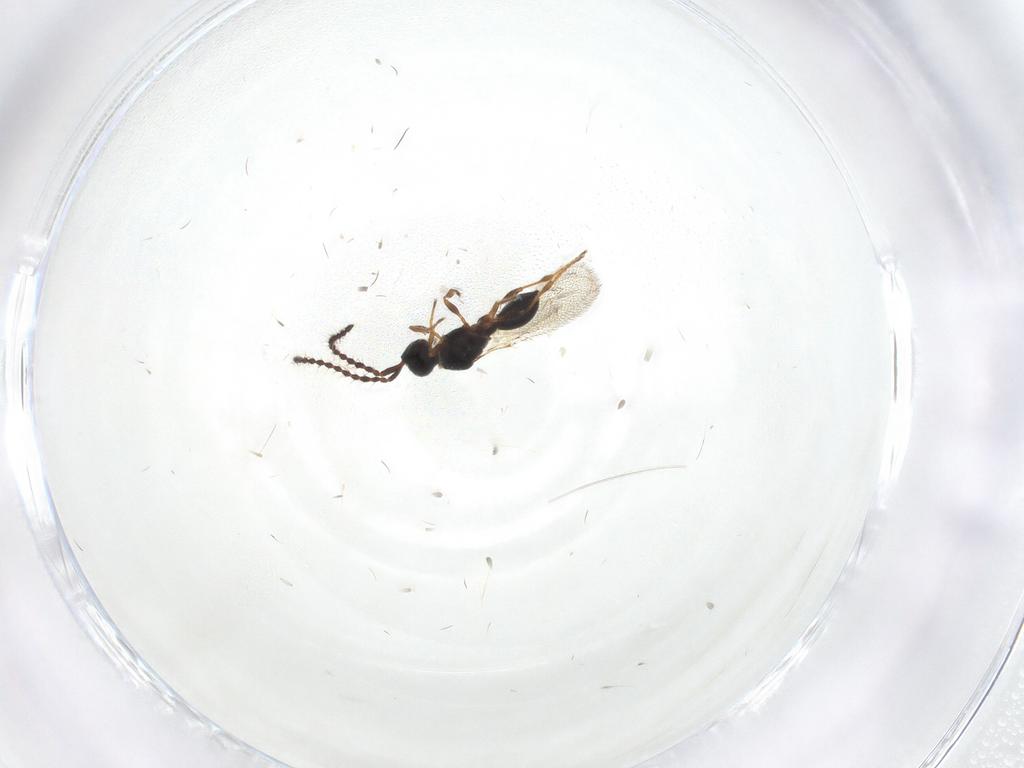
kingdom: Animalia
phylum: Arthropoda
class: Insecta
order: Hymenoptera
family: Diapriidae
